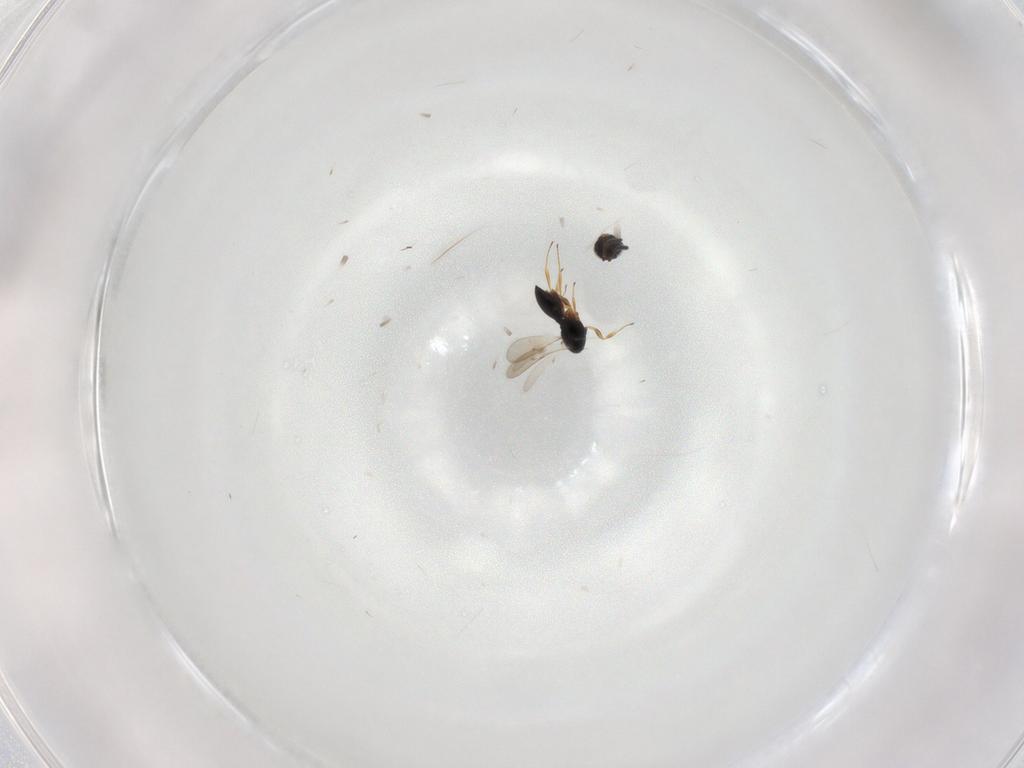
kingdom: Animalia
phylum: Arthropoda
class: Insecta
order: Hymenoptera
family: Scelionidae
